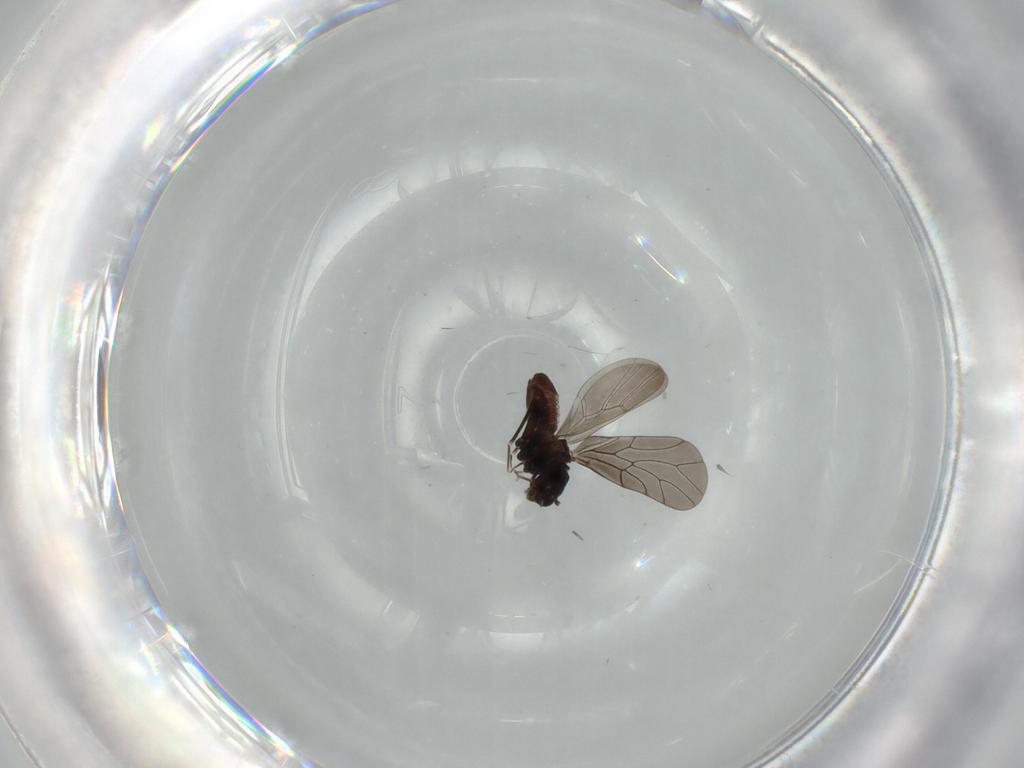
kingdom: Animalia
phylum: Arthropoda
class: Insecta
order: Psocodea
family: Lepidopsocidae
